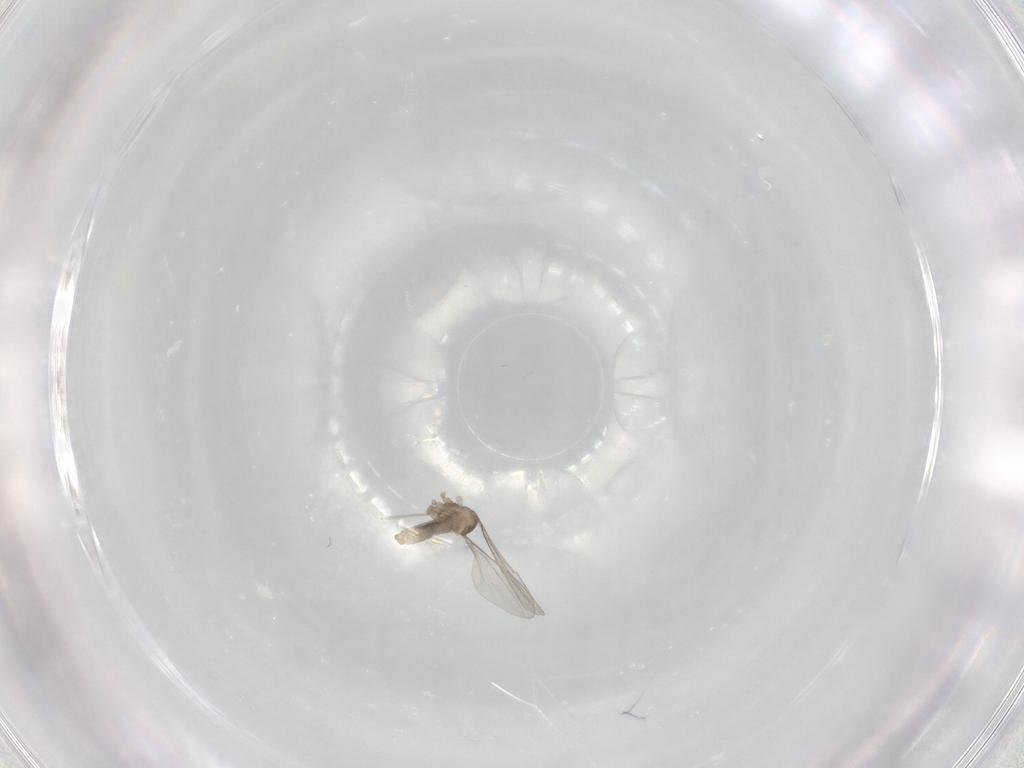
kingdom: Animalia
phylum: Arthropoda
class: Insecta
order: Diptera
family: Cecidomyiidae
